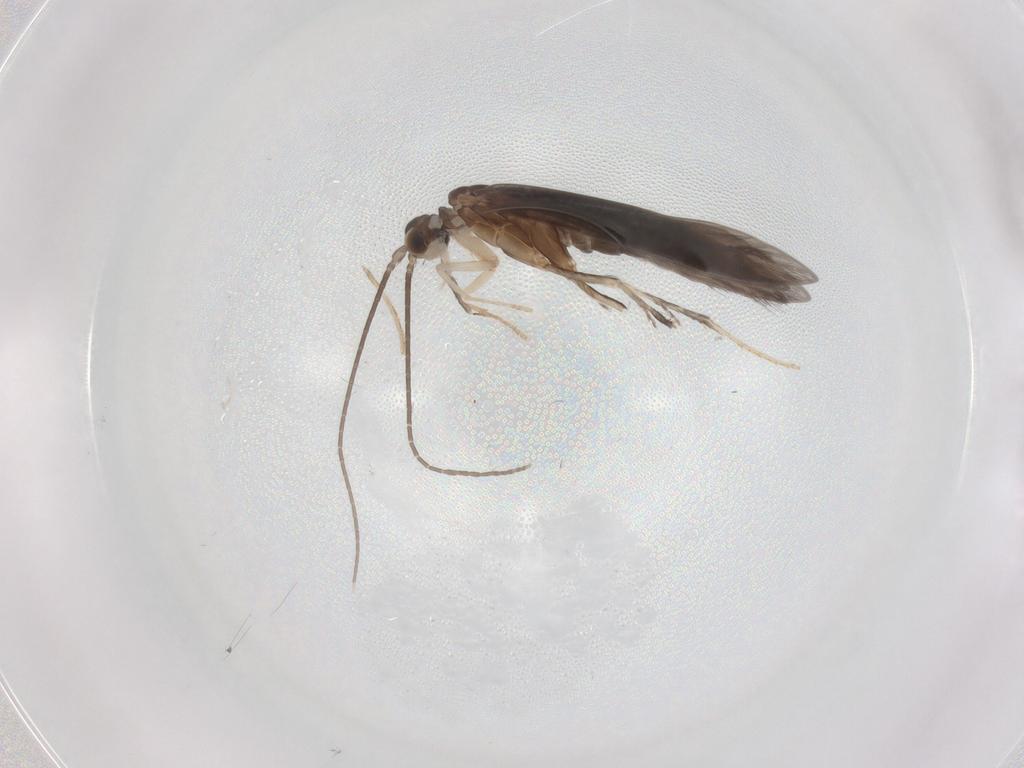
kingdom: Animalia
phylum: Arthropoda
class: Insecta
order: Trichoptera
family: Xiphocentronidae
